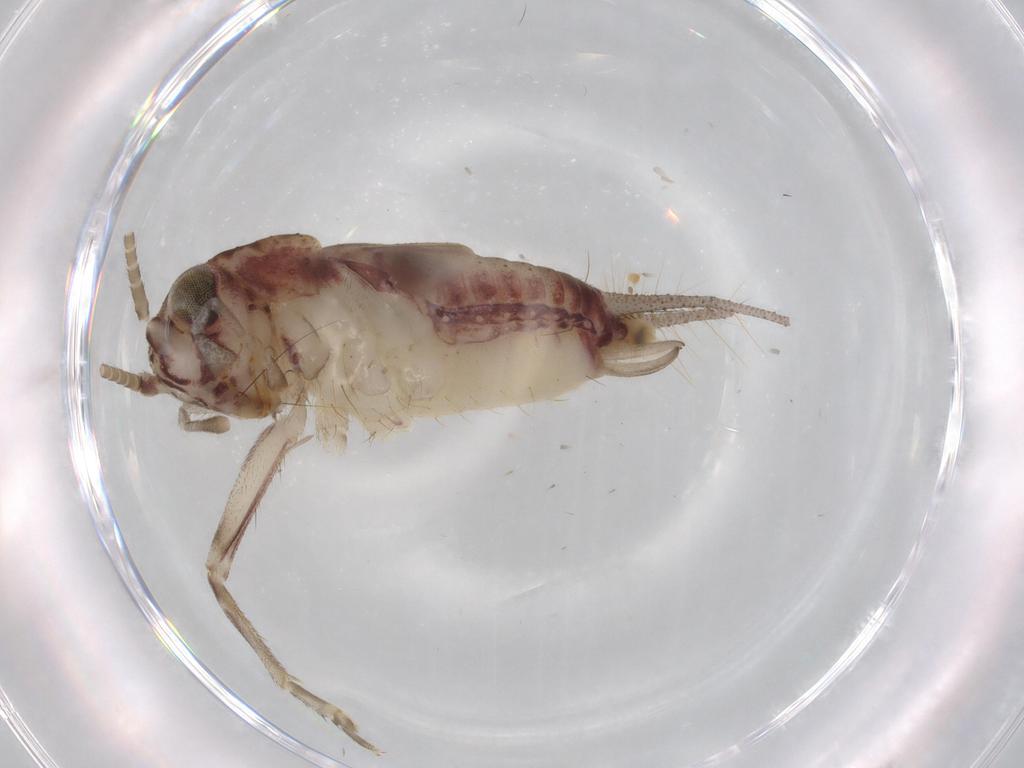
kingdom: Animalia
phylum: Arthropoda
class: Insecta
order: Orthoptera
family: Trigonidiidae
